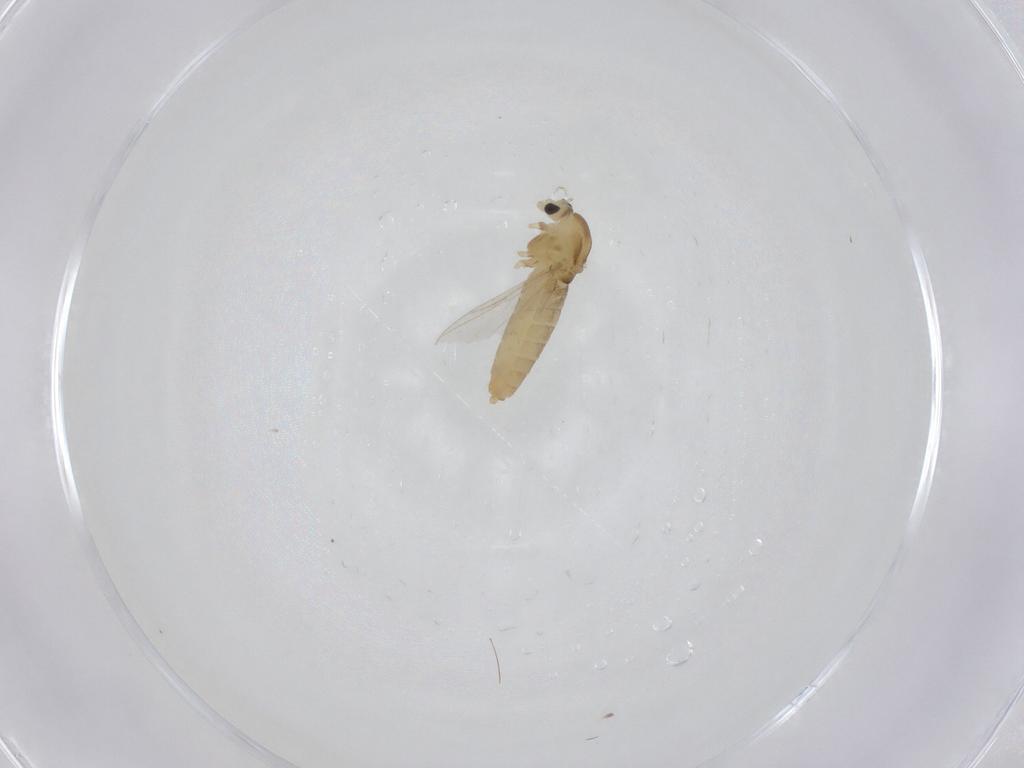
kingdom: Animalia
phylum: Arthropoda
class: Insecta
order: Diptera
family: Chironomidae
